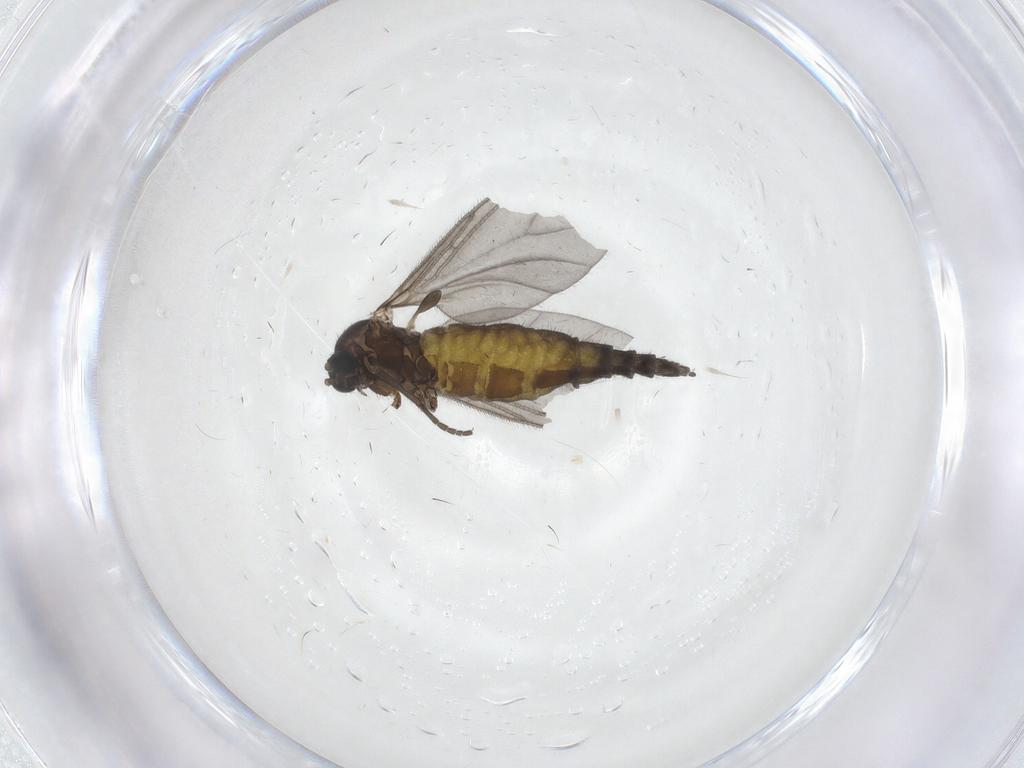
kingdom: Animalia
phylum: Arthropoda
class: Insecta
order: Diptera
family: Sciaridae
